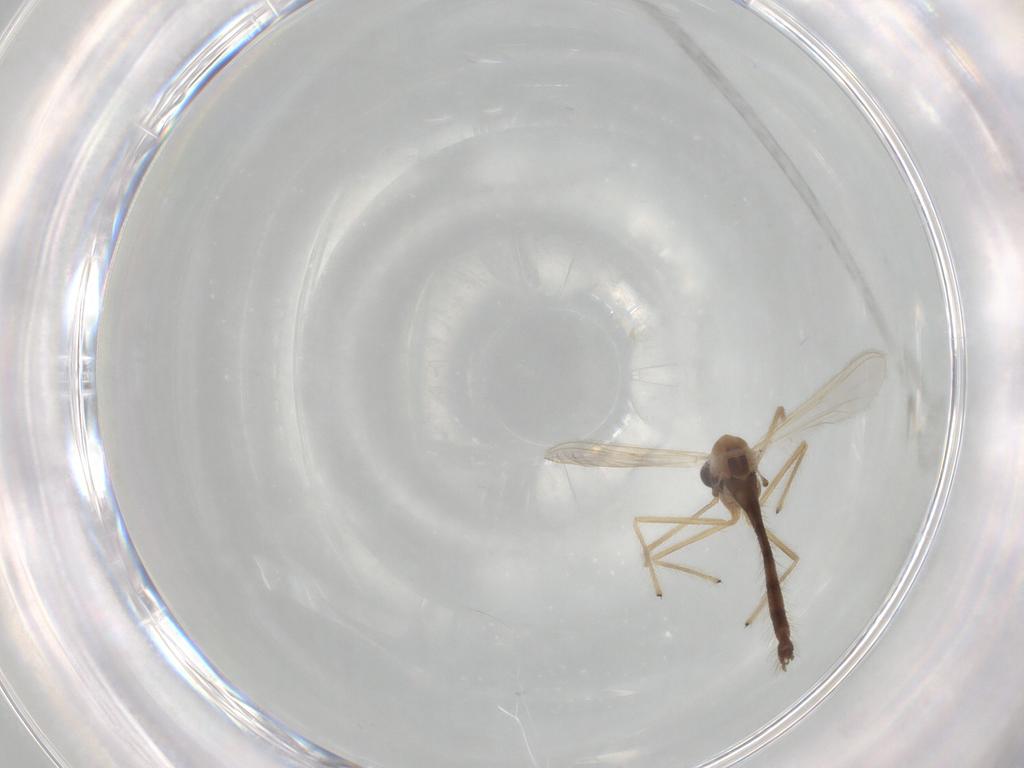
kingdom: Animalia
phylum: Arthropoda
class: Insecta
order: Diptera
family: Chironomidae
